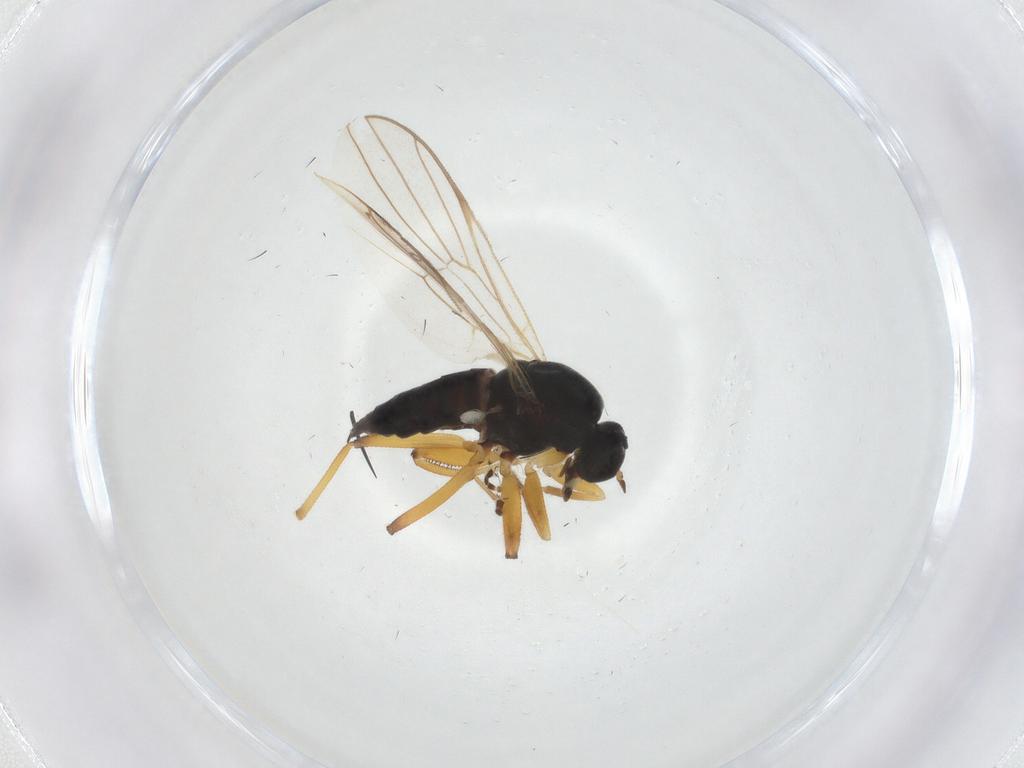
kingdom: Animalia
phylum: Arthropoda
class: Insecta
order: Diptera
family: Hybotidae
